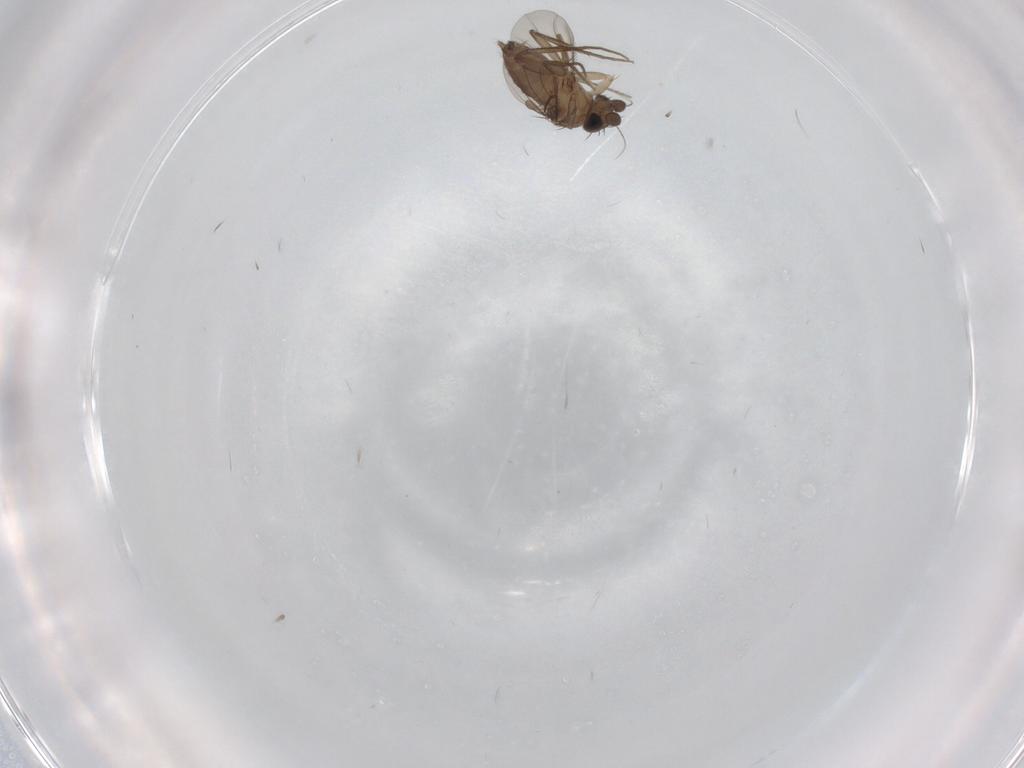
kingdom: Animalia
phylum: Arthropoda
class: Insecta
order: Diptera
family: Phoridae
